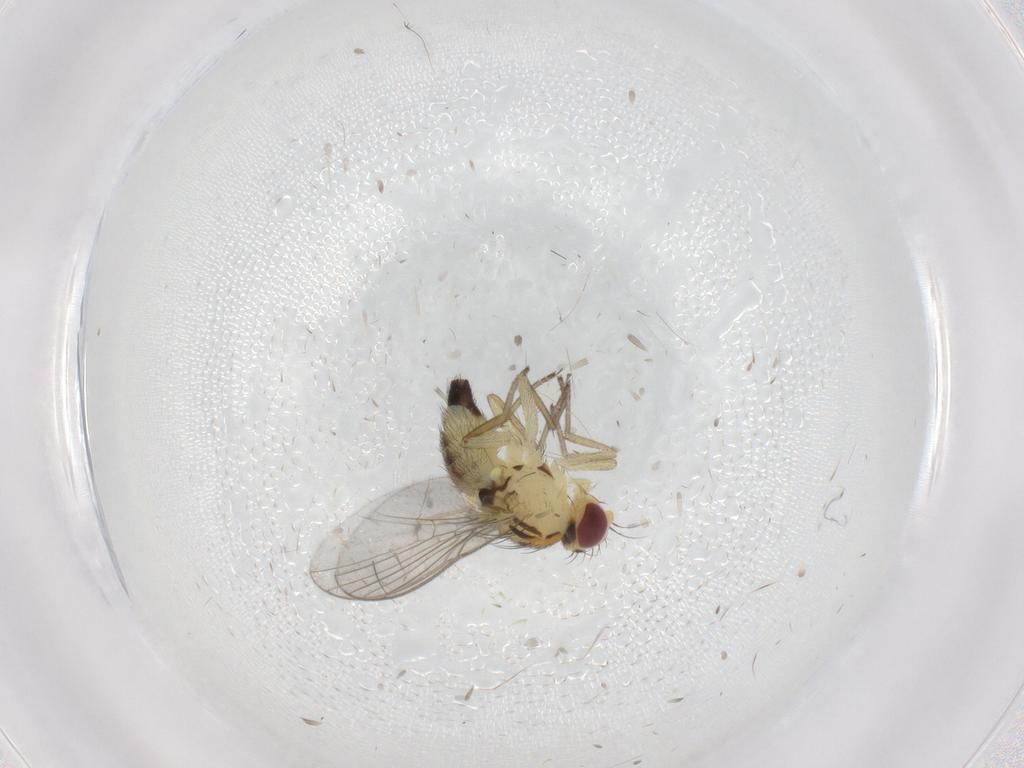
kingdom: Animalia
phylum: Arthropoda
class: Insecta
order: Diptera
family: Agromyzidae
